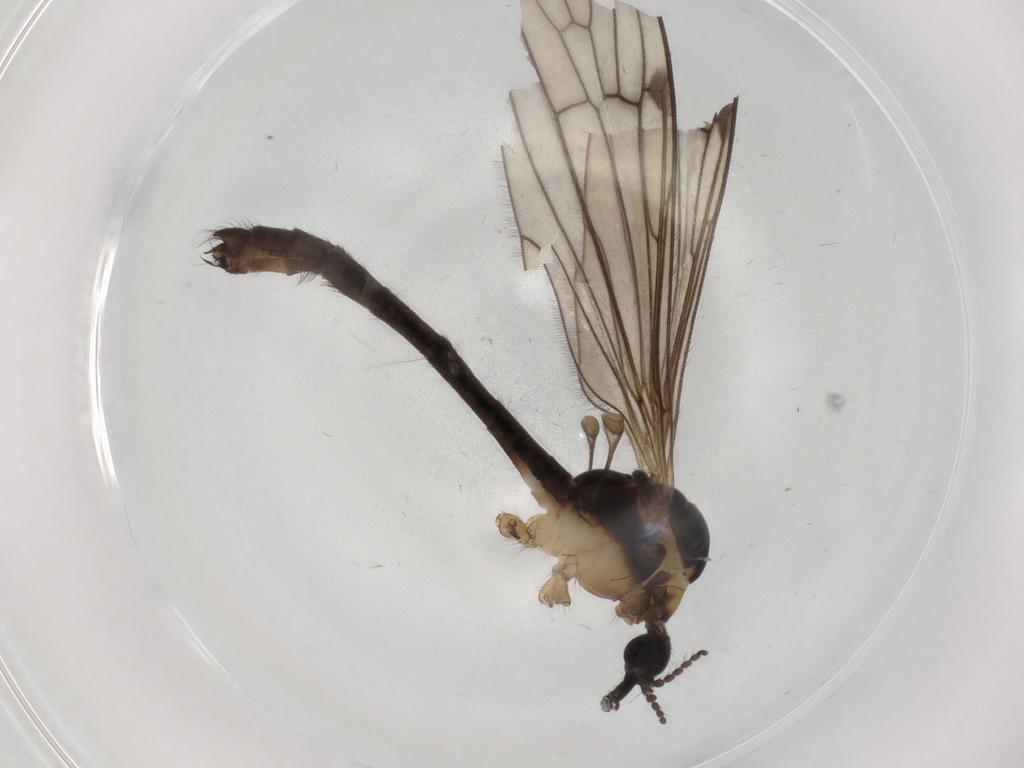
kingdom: Animalia
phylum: Arthropoda
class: Insecta
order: Diptera
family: Limoniidae
